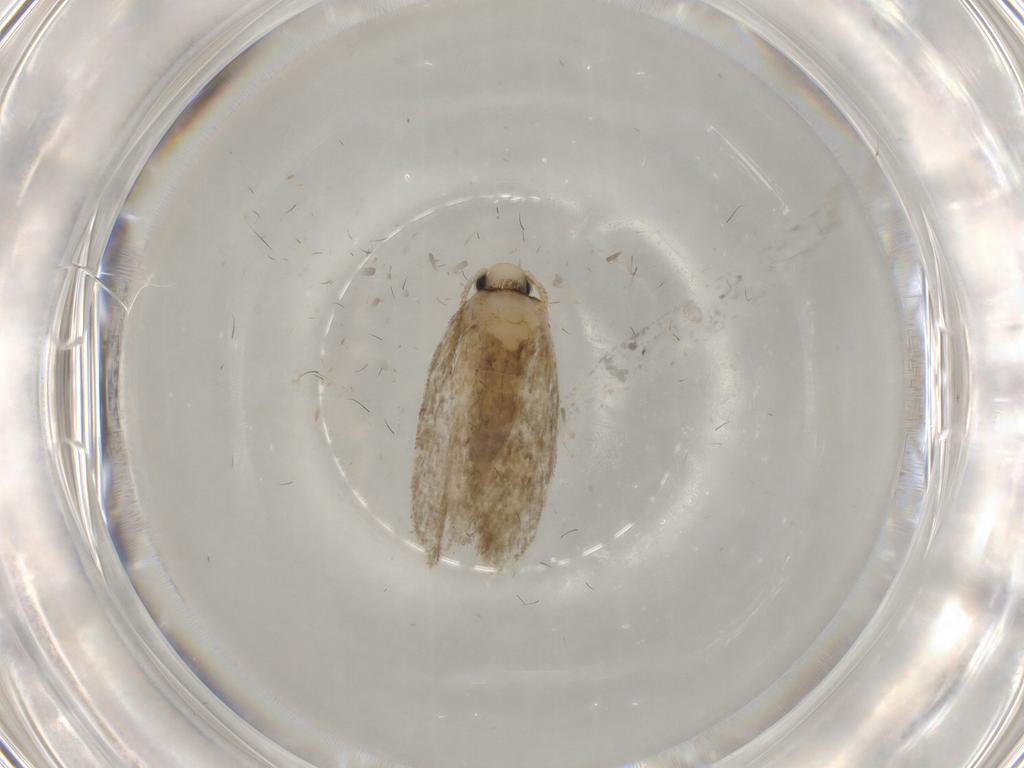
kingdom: Animalia
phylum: Arthropoda
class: Insecta
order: Lepidoptera
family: Psychidae
